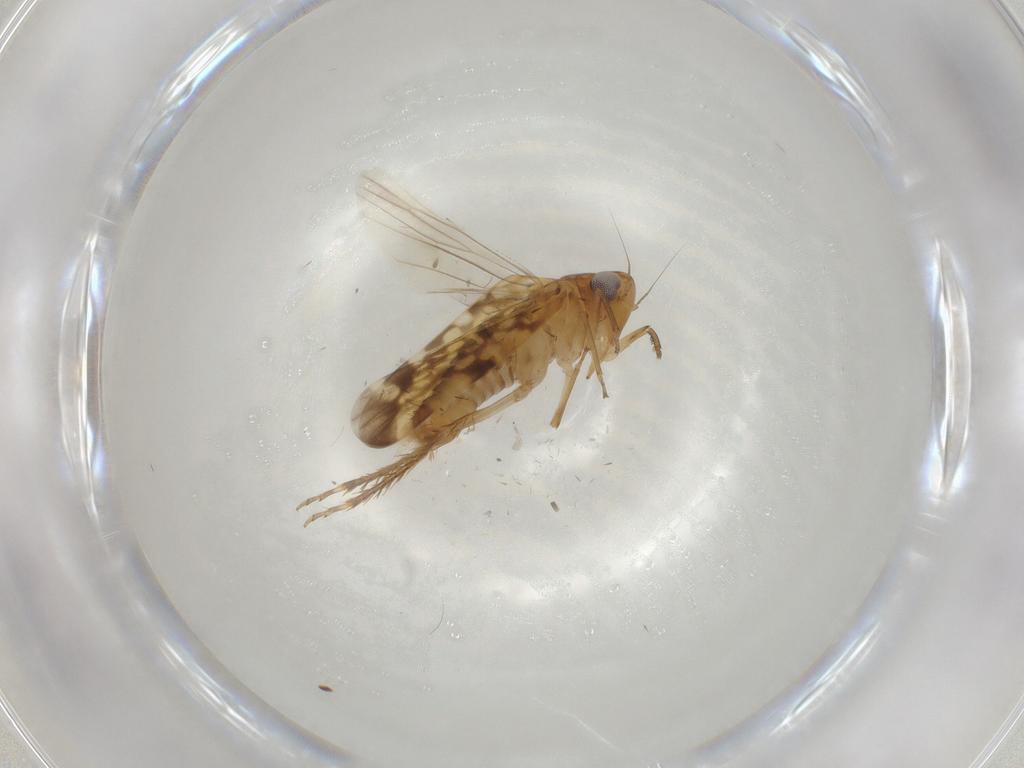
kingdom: Animalia
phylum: Arthropoda
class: Insecta
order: Hemiptera
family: Cicadellidae
